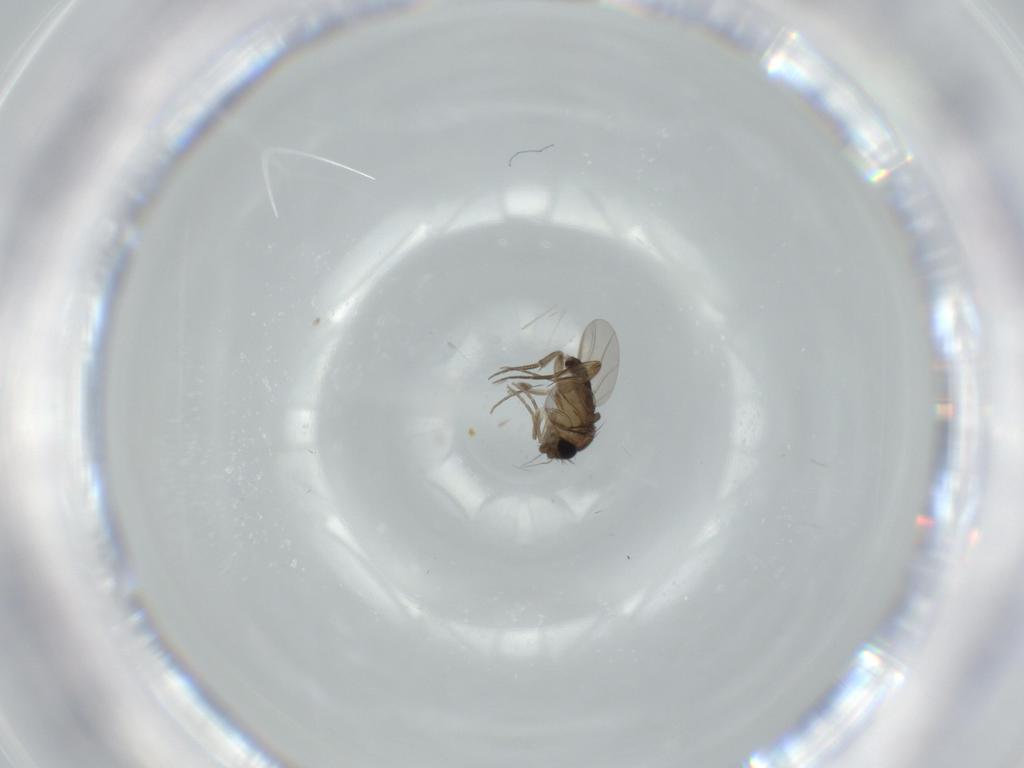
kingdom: Animalia
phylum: Arthropoda
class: Insecta
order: Diptera
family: Phoridae
